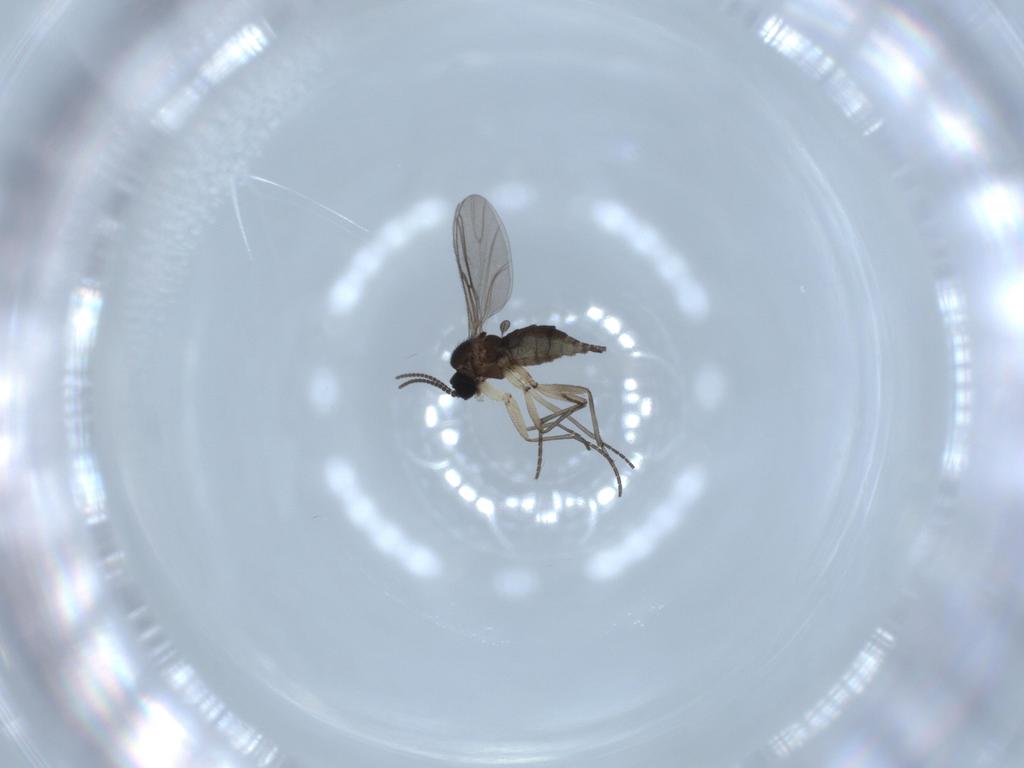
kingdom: Animalia
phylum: Arthropoda
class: Insecta
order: Diptera
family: Sciaridae
